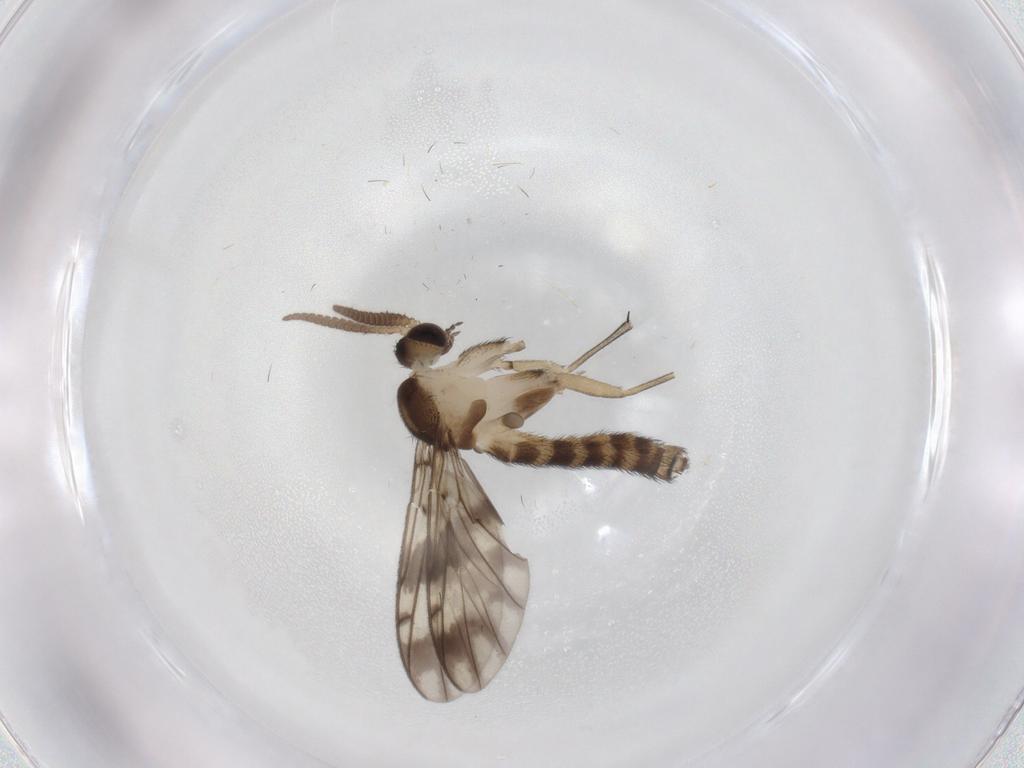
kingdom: Animalia
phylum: Arthropoda
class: Insecta
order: Diptera
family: Keroplatidae
